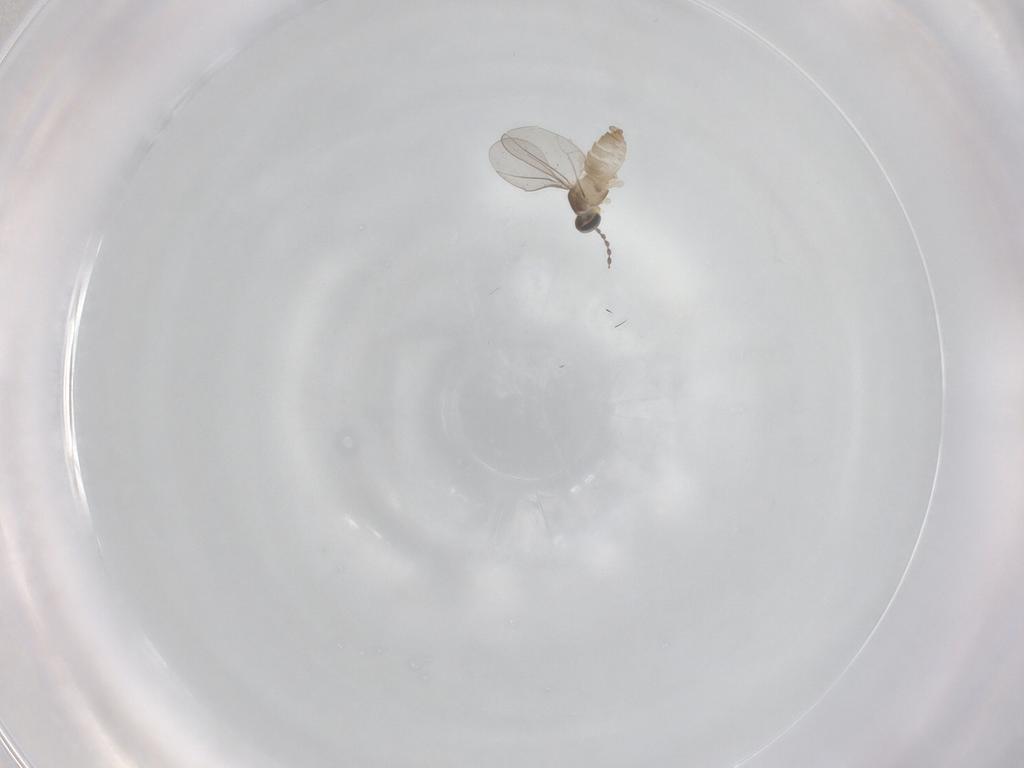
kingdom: Animalia
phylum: Arthropoda
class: Insecta
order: Diptera
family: Cecidomyiidae
